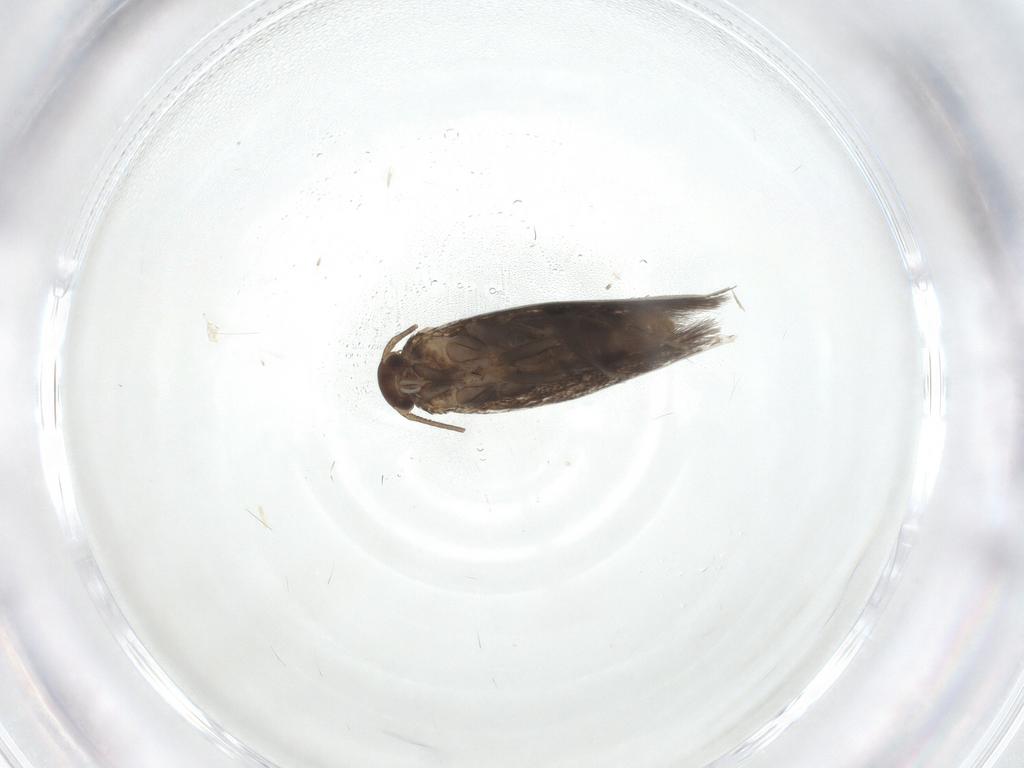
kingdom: Animalia
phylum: Arthropoda
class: Insecta
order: Lepidoptera
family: Elachistidae
